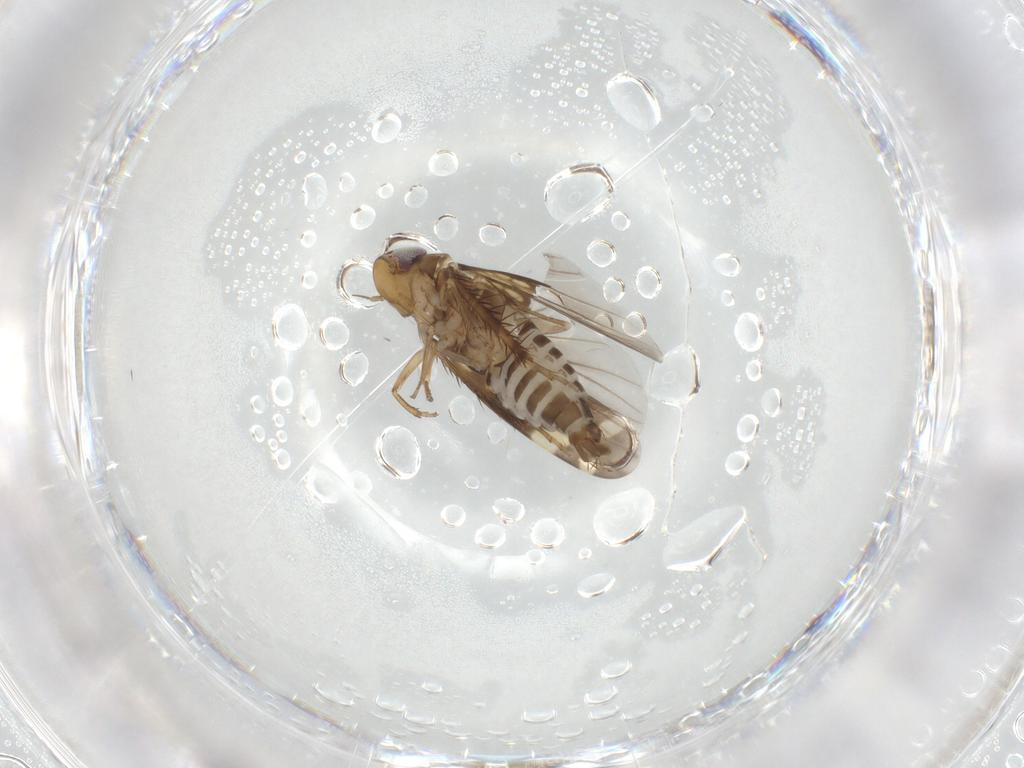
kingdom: Animalia
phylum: Arthropoda
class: Insecta
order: Hemiptera
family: Cicadellidae
